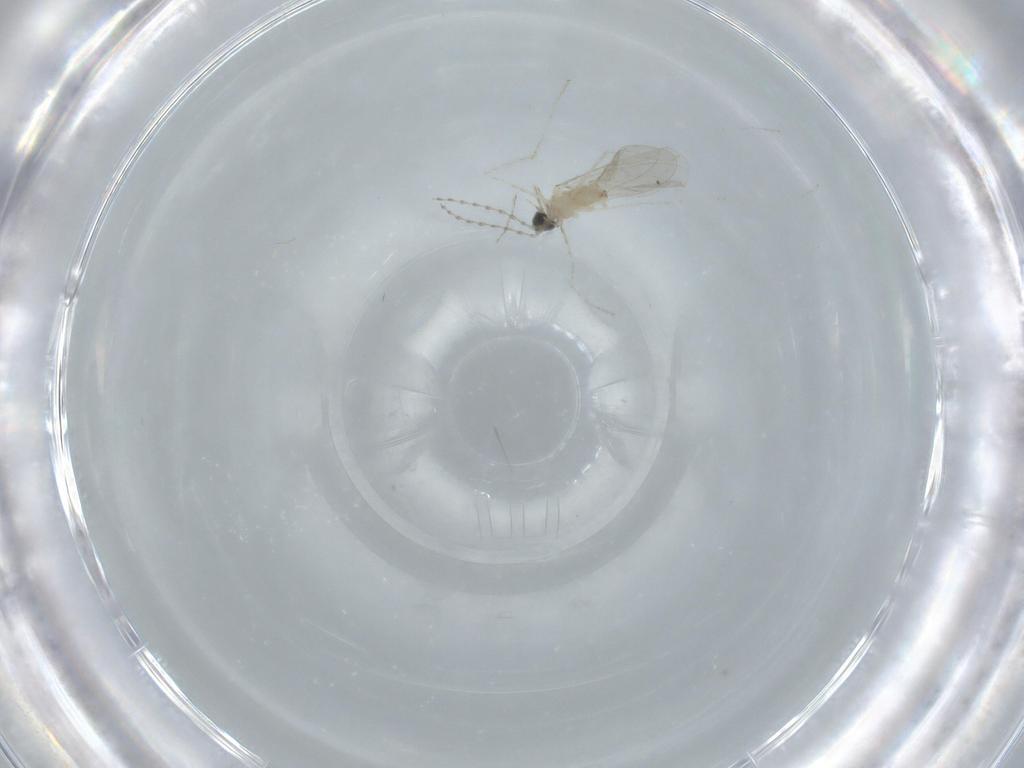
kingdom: Animalia
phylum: Arthropoda
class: Insecta
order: Diptera
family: Cecidomyiidae
